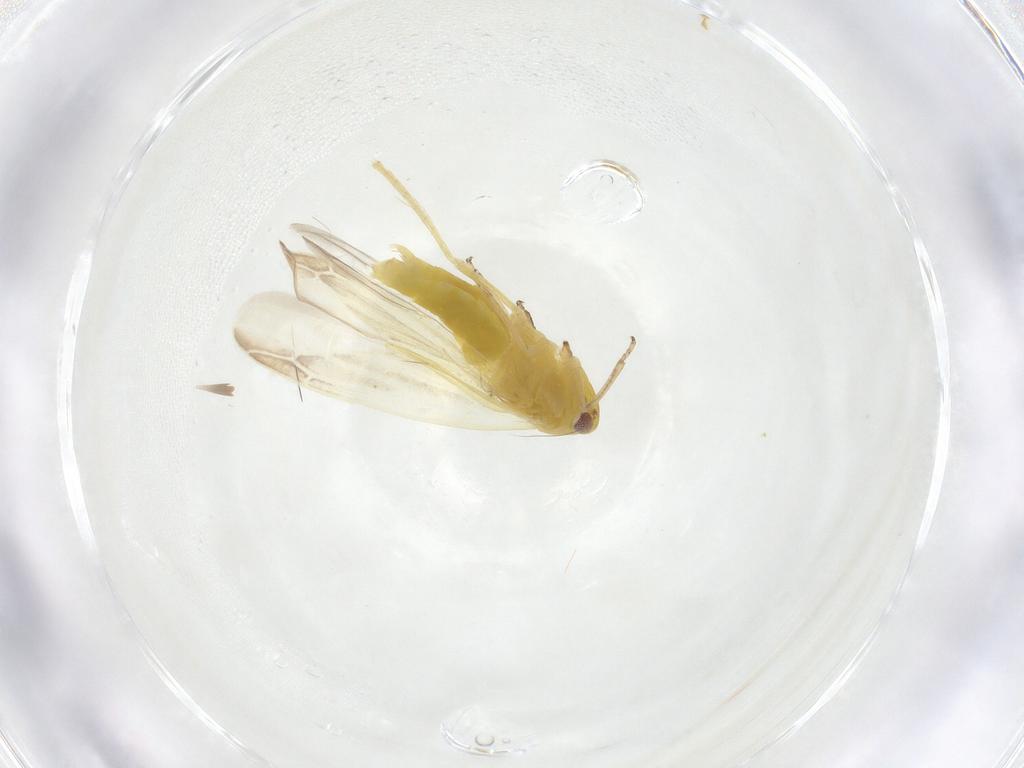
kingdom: Animalia
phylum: Arthropoda
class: Insecta
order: Hemiptera
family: Cicadellidae
